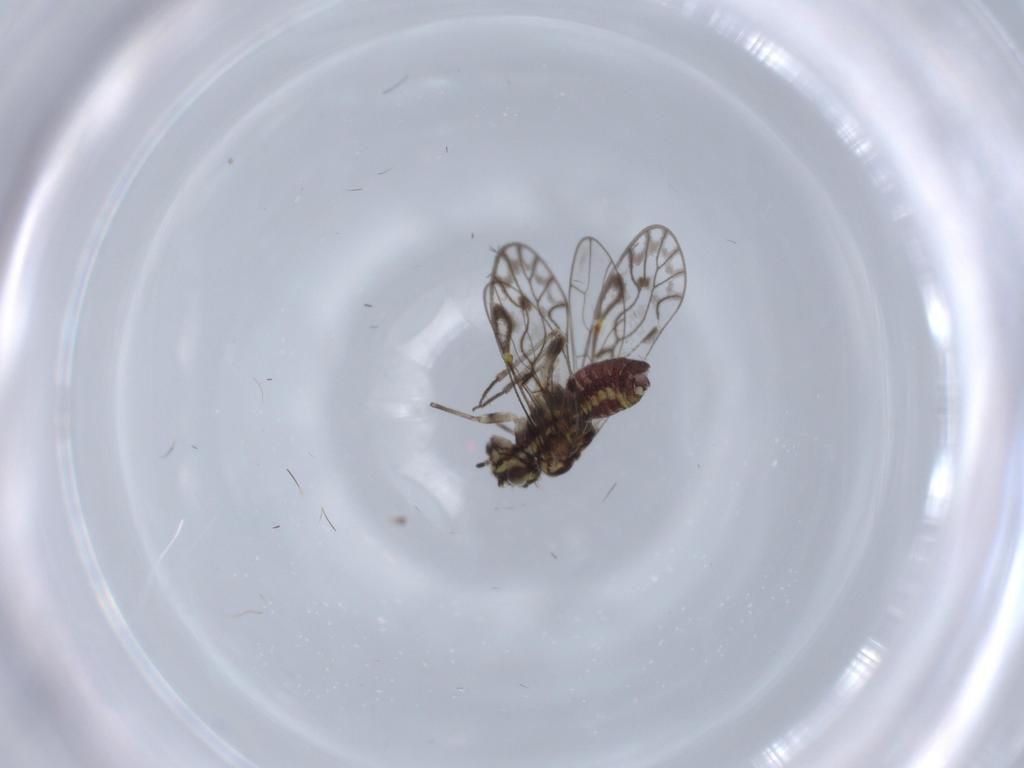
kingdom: Animalia
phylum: Arthropoda
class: Insecta
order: Psocodea
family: Psocidae
